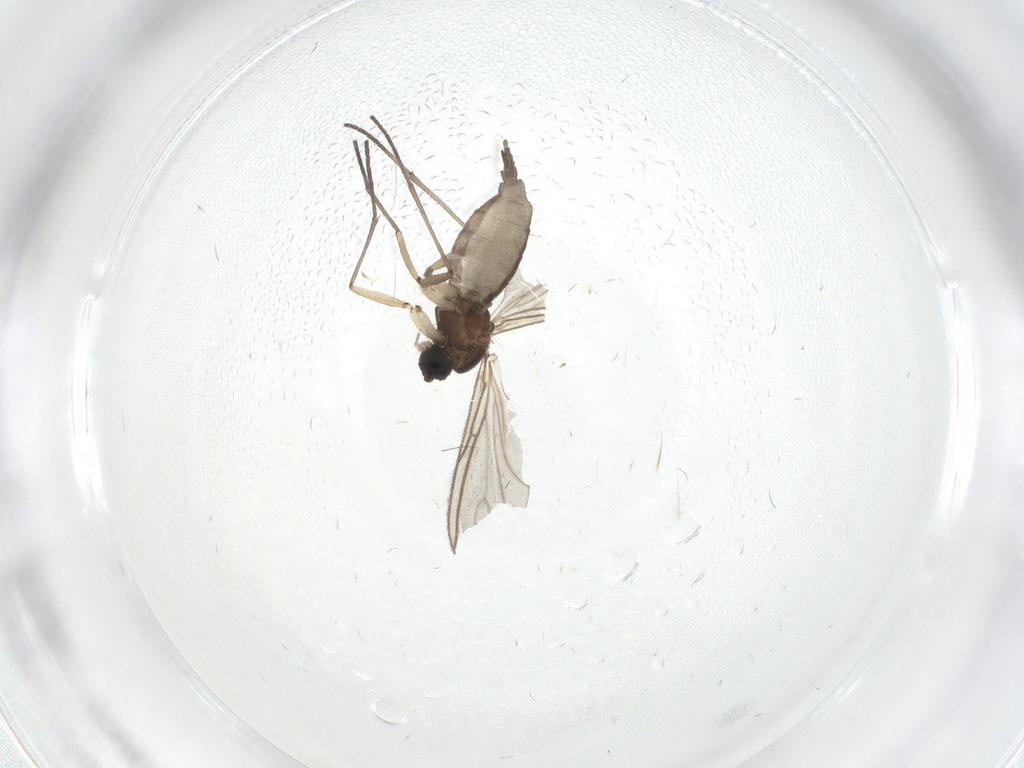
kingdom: Animalia
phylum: Arthropoda
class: Insecta
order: Diptera
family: Sciaridae
